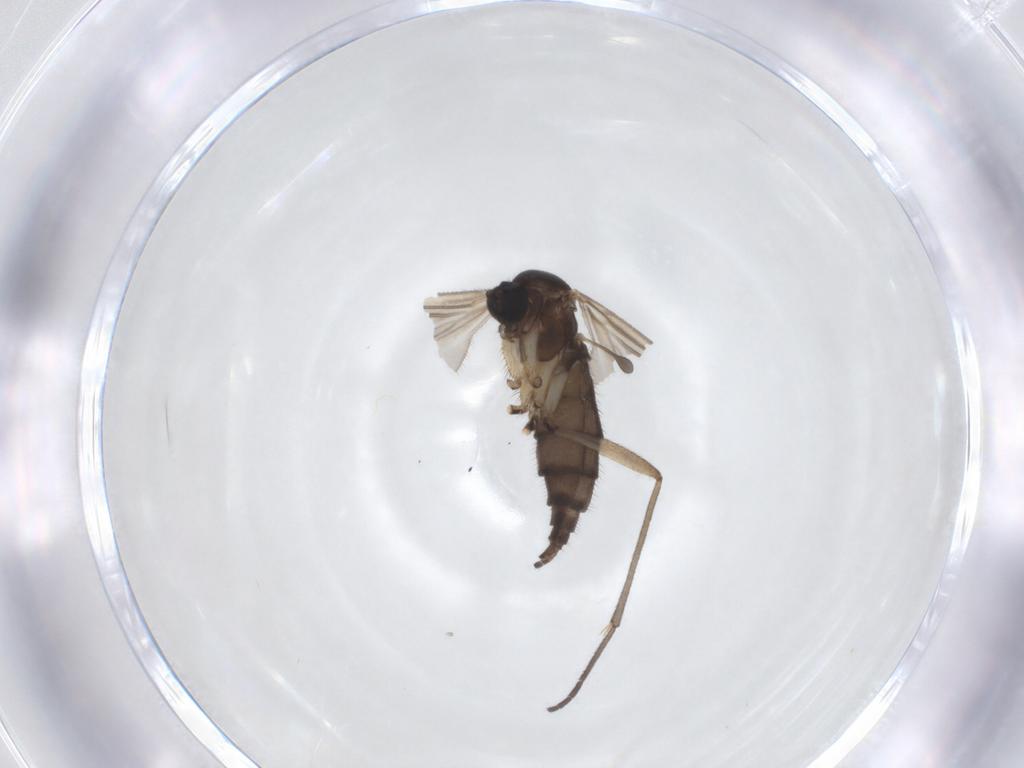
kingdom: Animalia
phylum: Arthropoda
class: Insecta
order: Diptera
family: Sciaridae
